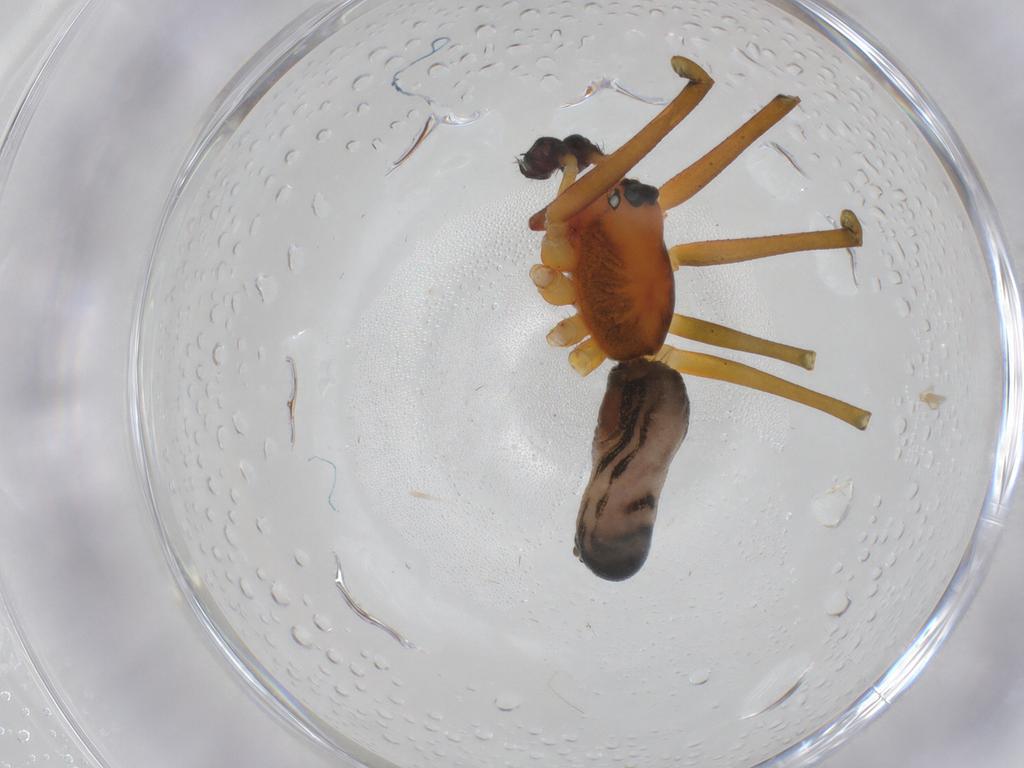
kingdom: Animalia
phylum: Arthropoda
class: Arachnida
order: Araneae
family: Linyphiidae
